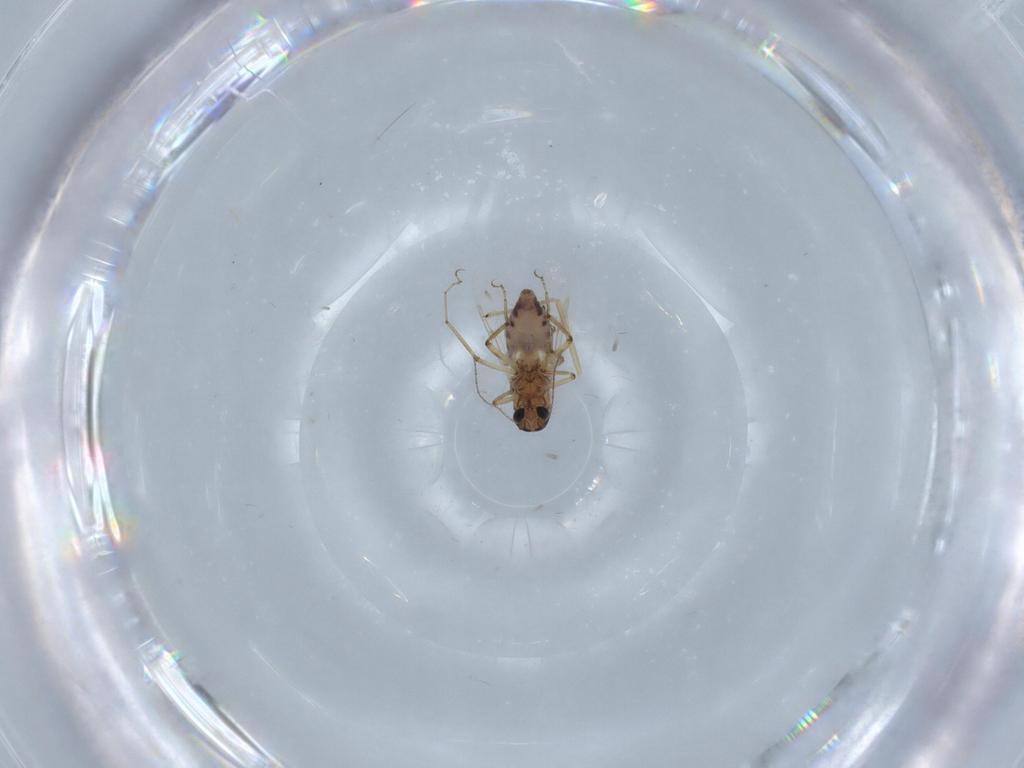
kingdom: Animalia
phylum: Arthropoda
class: Insecta
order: Diptera
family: Ceratopogonidae
